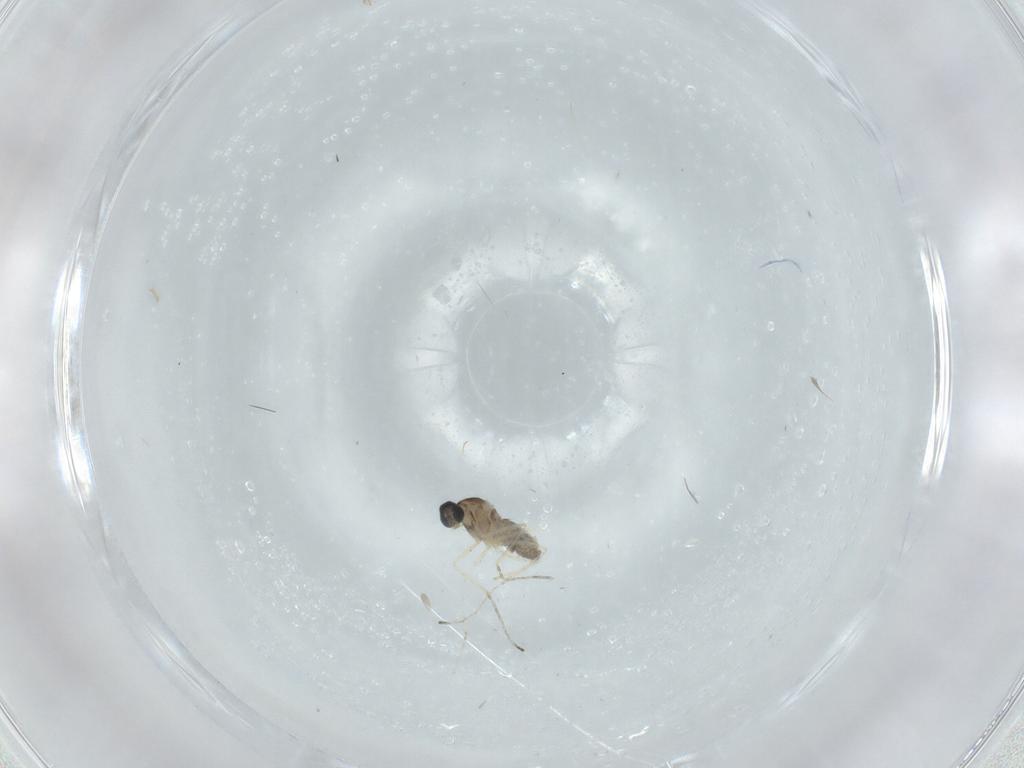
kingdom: Animalia
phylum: Arthropoda
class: Insecta
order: Diptera
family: Cecidomyiidae
